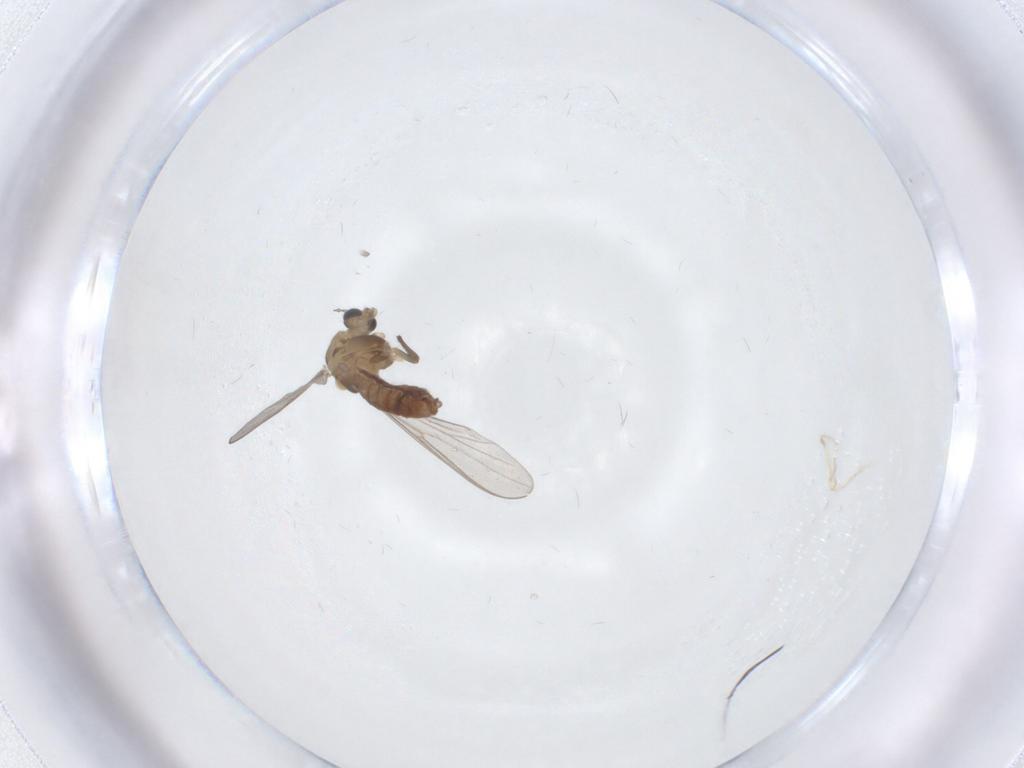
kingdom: Animalia
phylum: Arthropoda
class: Insecta
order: Diptera
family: Chironomidae
